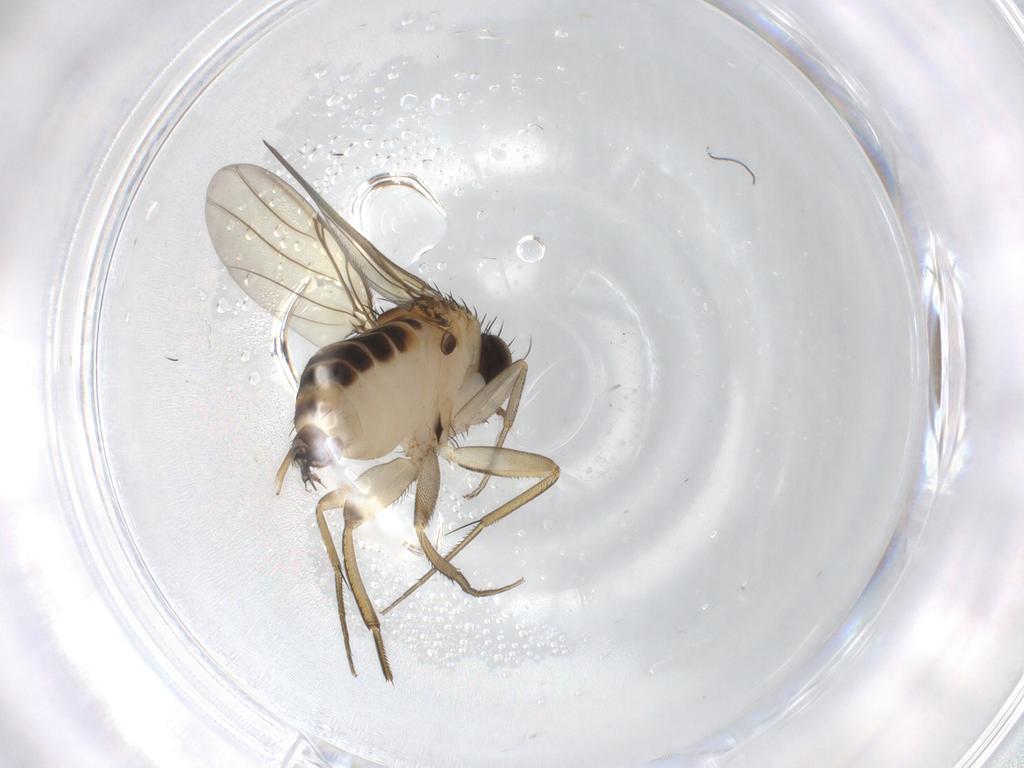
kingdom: Animalia
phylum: Arthropoda
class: Insecta
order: Diptera
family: Phoridae
